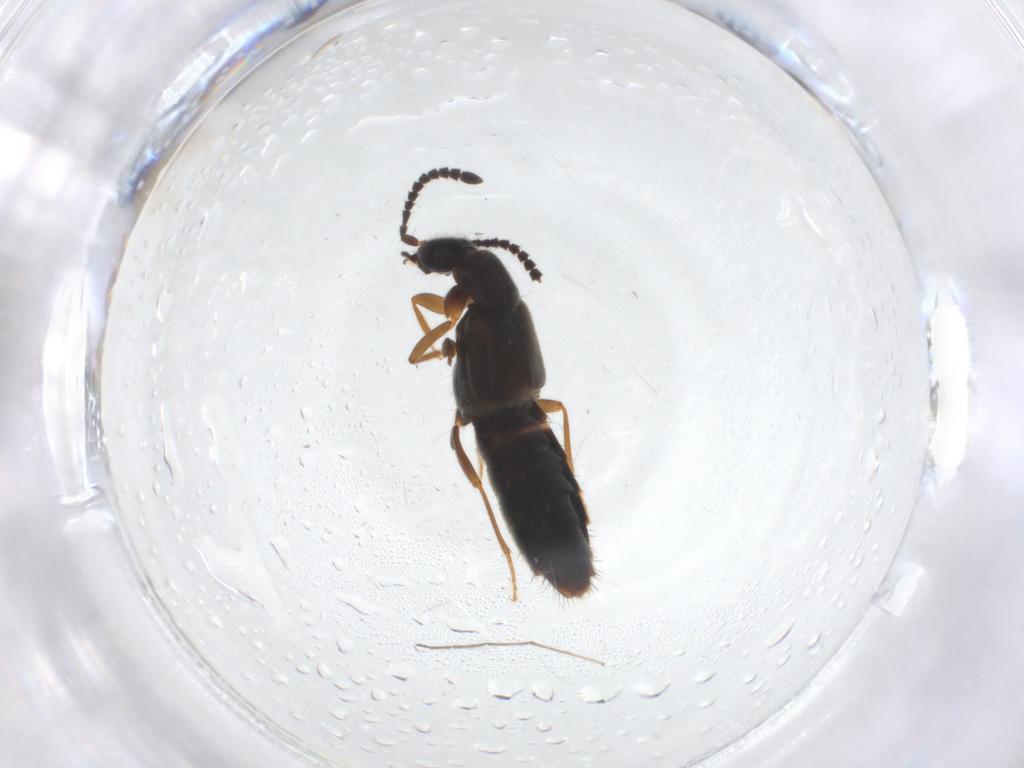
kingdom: Animalia
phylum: Arthropoda
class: Insecta
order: Coleoptera
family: Staphylinidae
